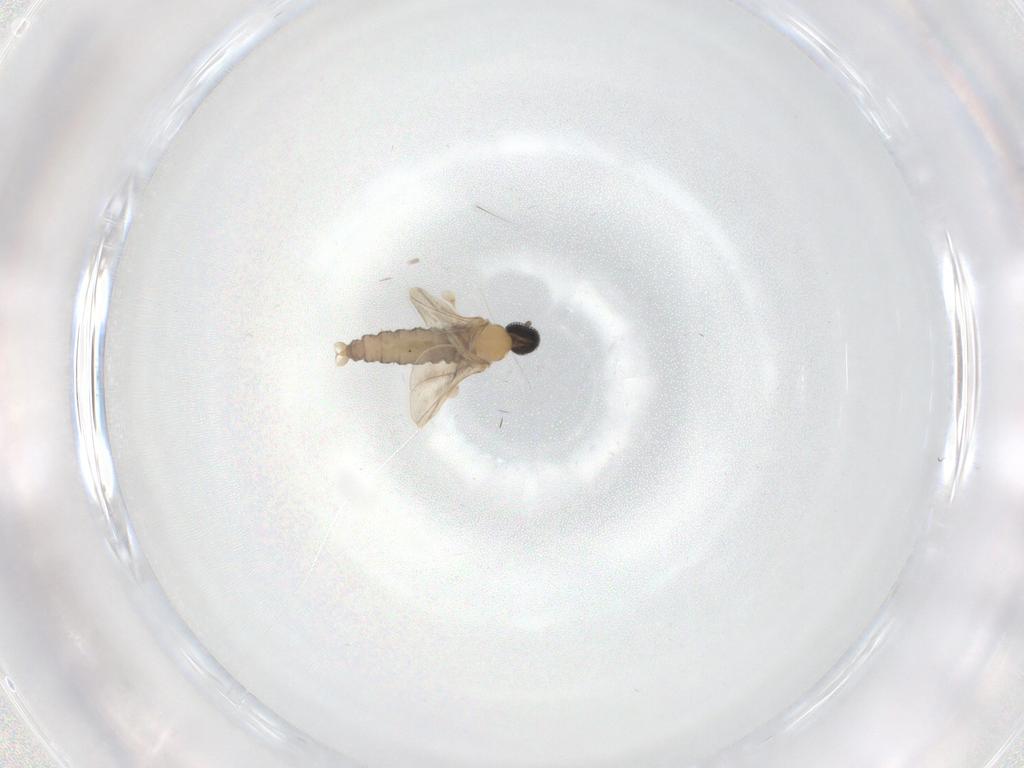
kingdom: Animalia
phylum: Arthropoda
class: Insecta
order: Diptera
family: Cecidomyiidae
